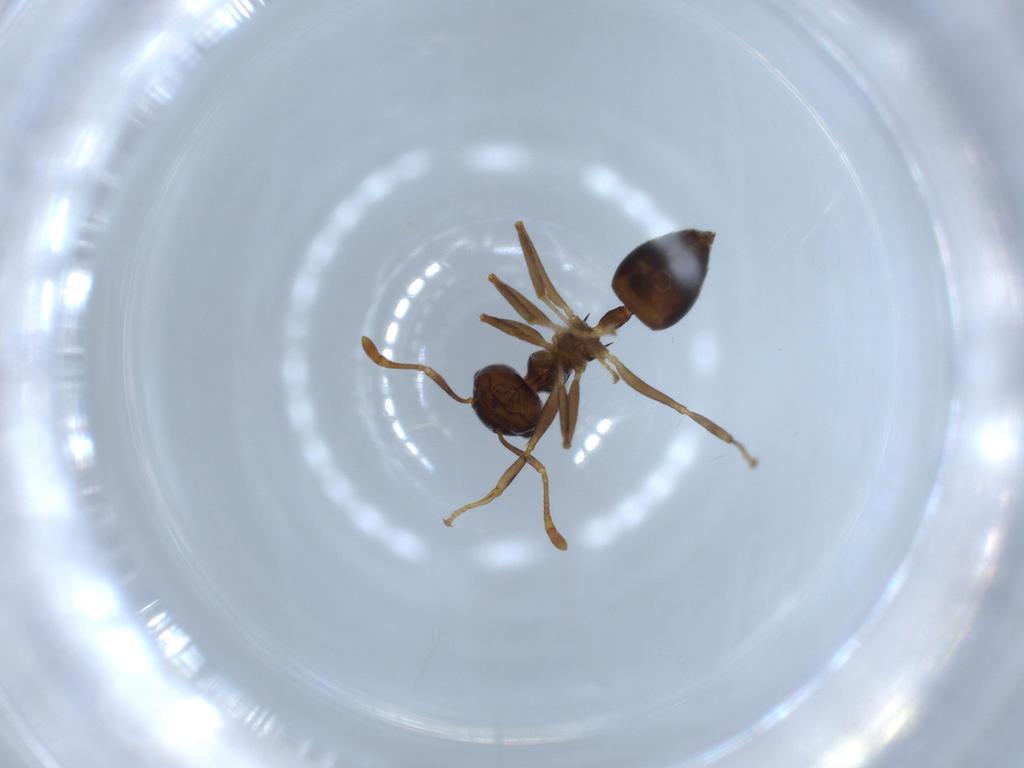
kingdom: Animalia
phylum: Arthropoda
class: Insecta
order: Hymenoptera
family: Formicidae
